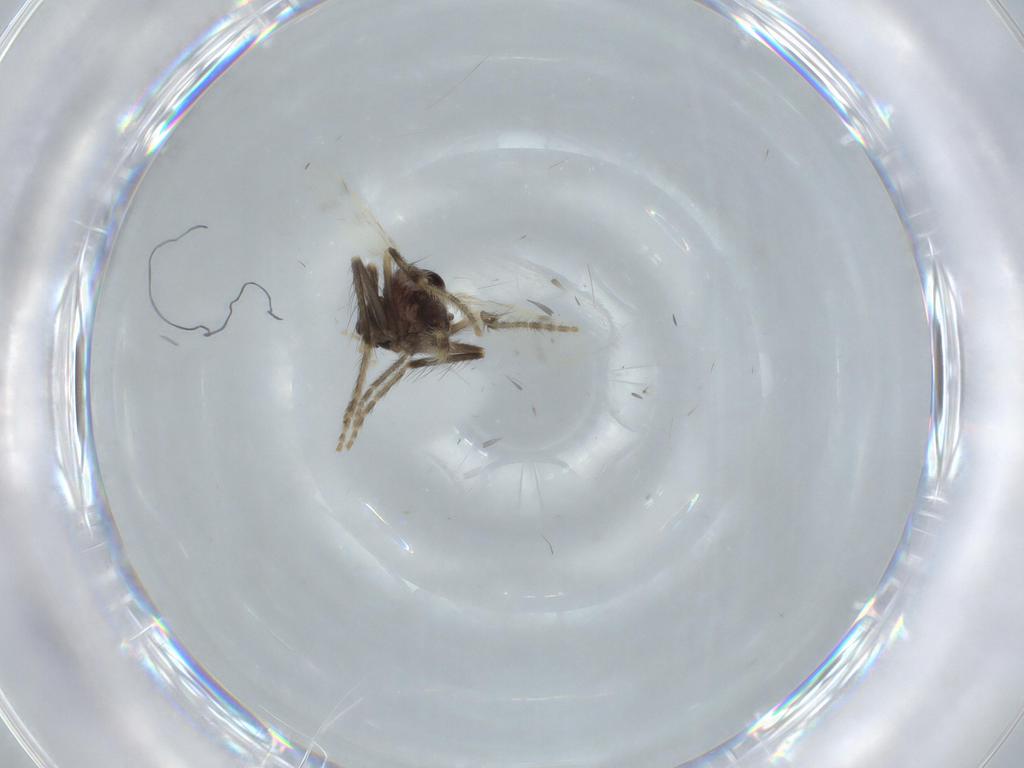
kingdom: Animalia
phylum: Arthropoda
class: Insecta
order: Diptera
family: Corethrellidae
